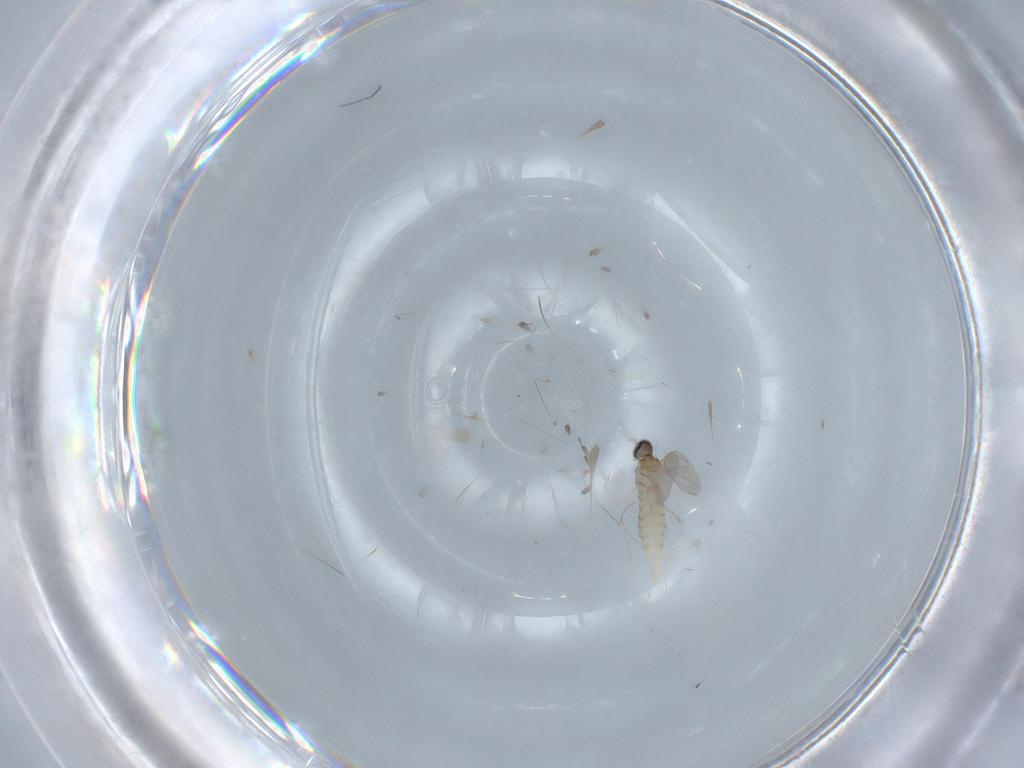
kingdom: Animalia
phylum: Arthropoda
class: Insecta
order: Diptera
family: Cecidomyiidae
